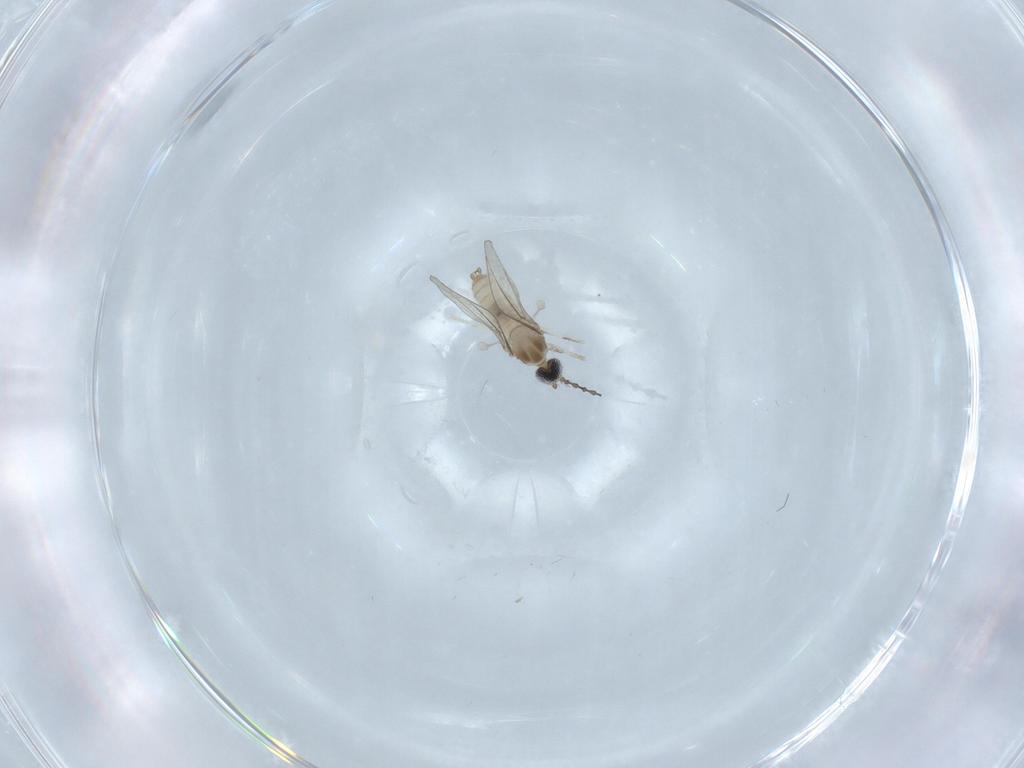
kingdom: Animalia
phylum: Arthropoda
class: Insecta
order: Diptera
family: Cecidomyiidae
